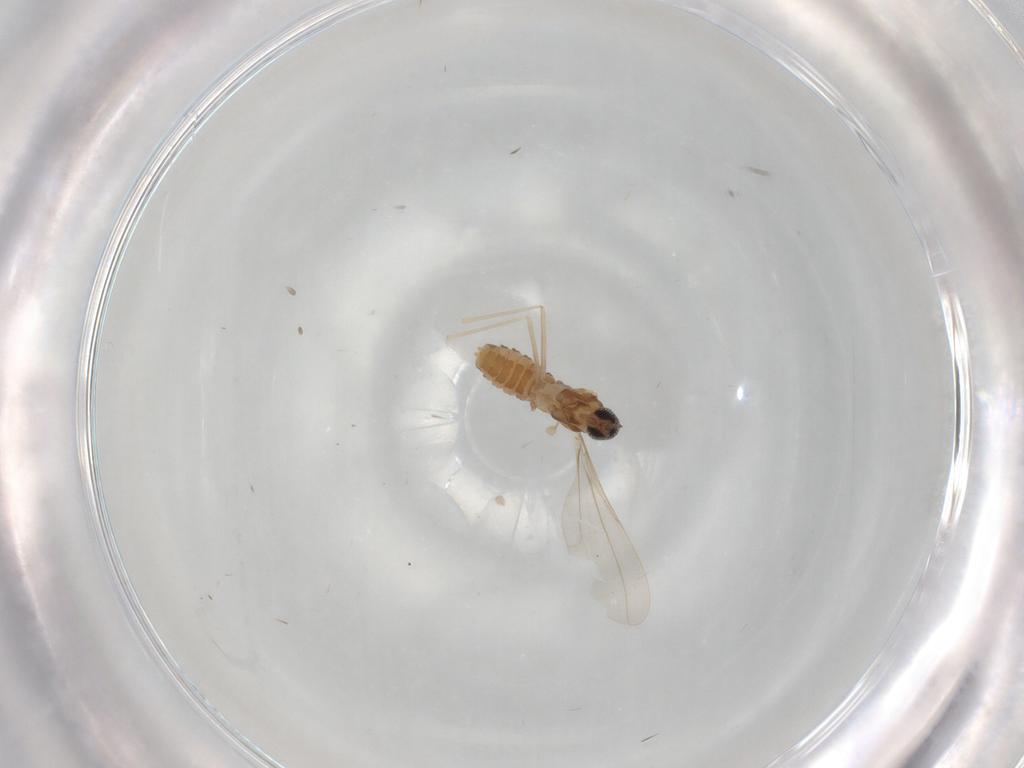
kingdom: Animalia
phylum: Arthropoda
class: Insecta
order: Diptera
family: Cecidomyiidae
